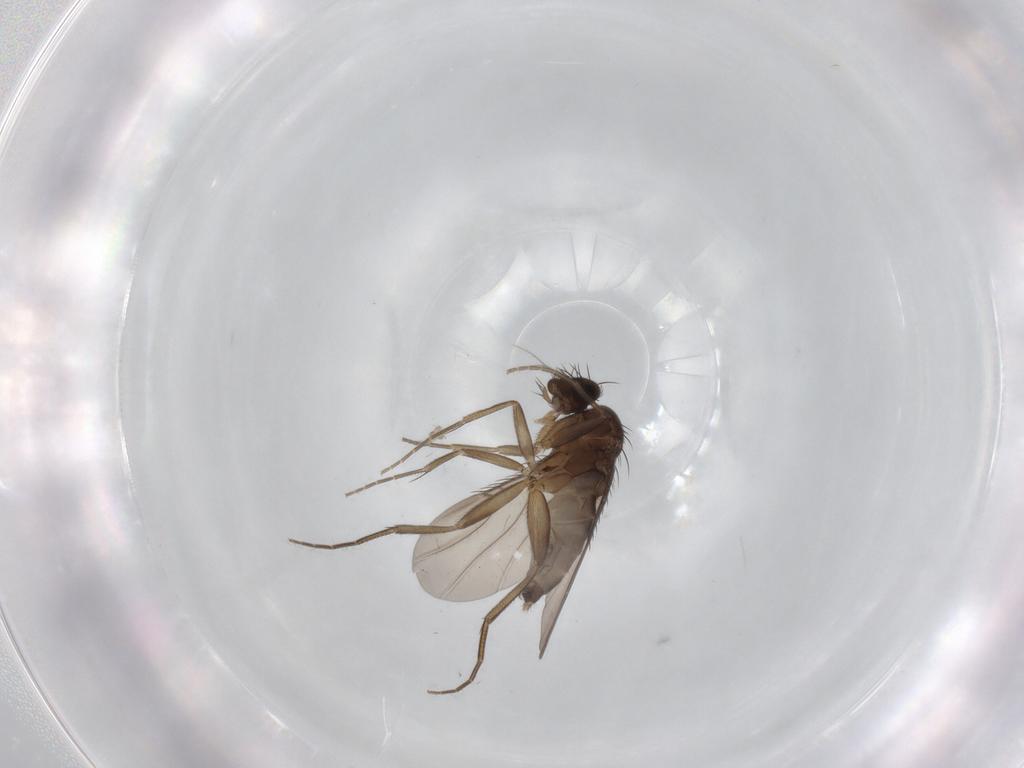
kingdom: Animalia
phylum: Arthropoda
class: Insecta
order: Diptera
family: Phoridae
